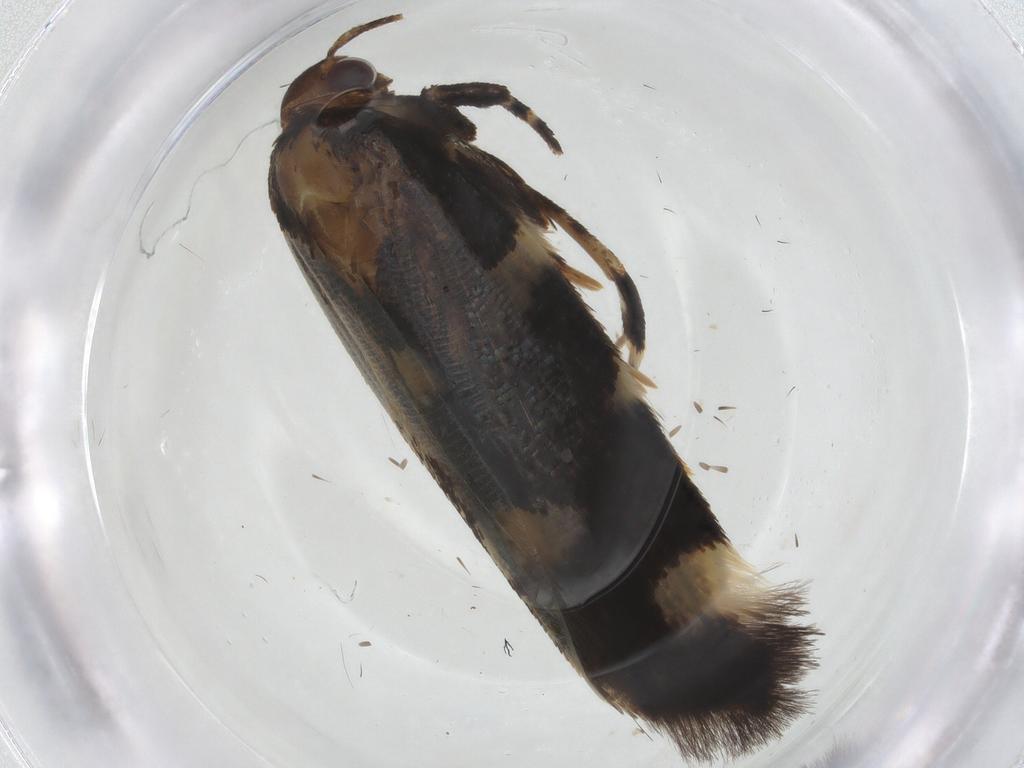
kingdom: Animalia
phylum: Arthropoda
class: Insecta
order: Lepidoptera
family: Cosmopterigidae
